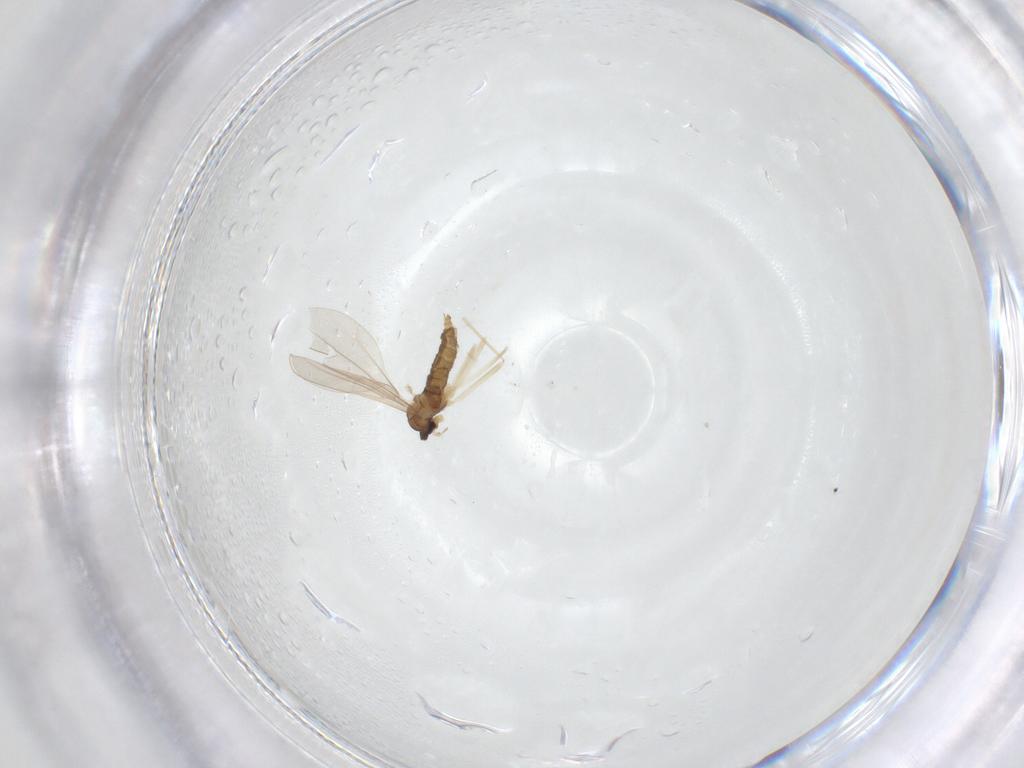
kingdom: Animalia
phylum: Arthropoda
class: Insecta
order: Diptera
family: Cecidomyiidae
